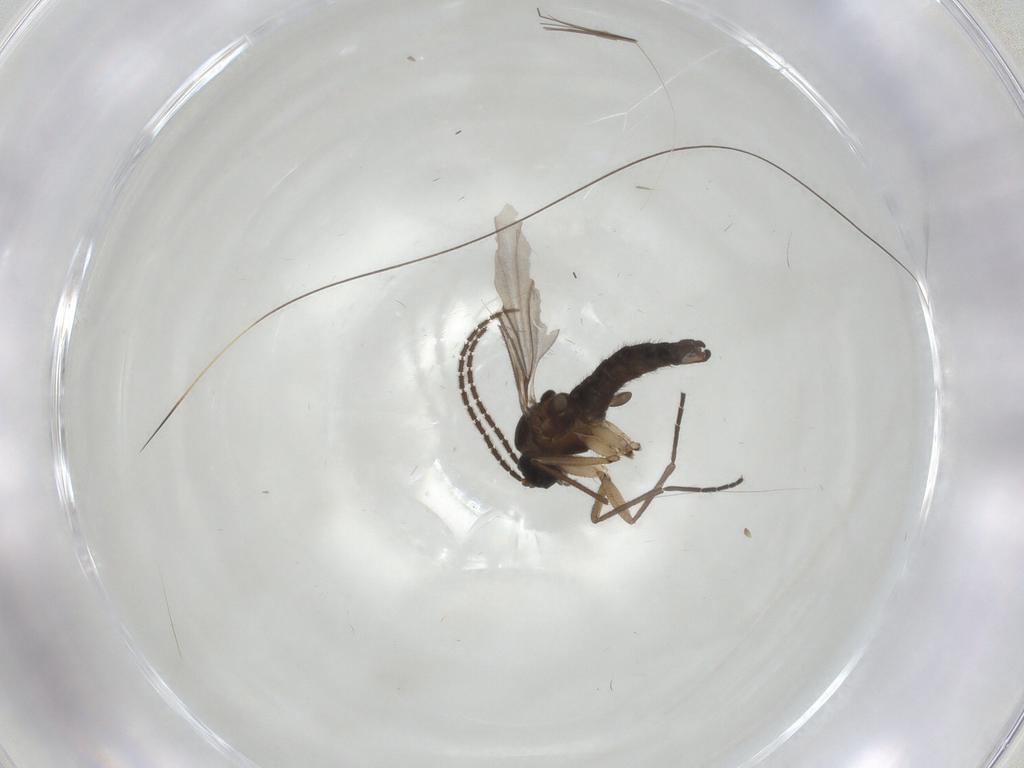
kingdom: Animalia
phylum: Arthropoda
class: Insecta
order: Diptera
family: Sciaridae
